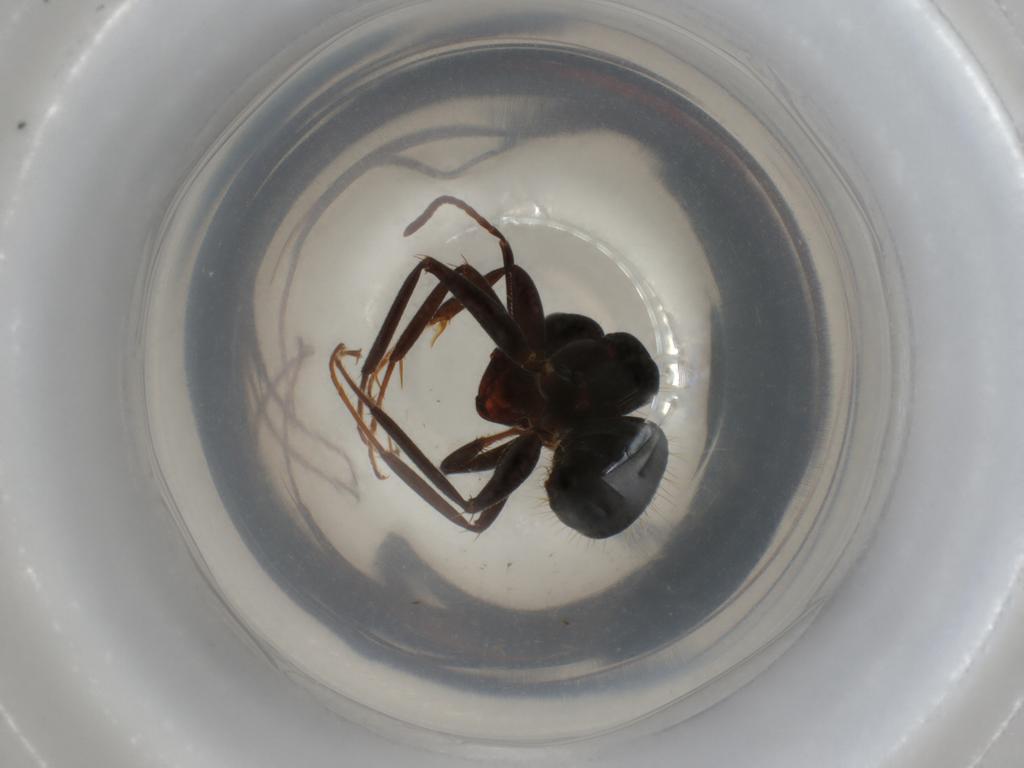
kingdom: Animalia
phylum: Arthropoda
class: Insecta
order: Hymenoptera
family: Formicidae
